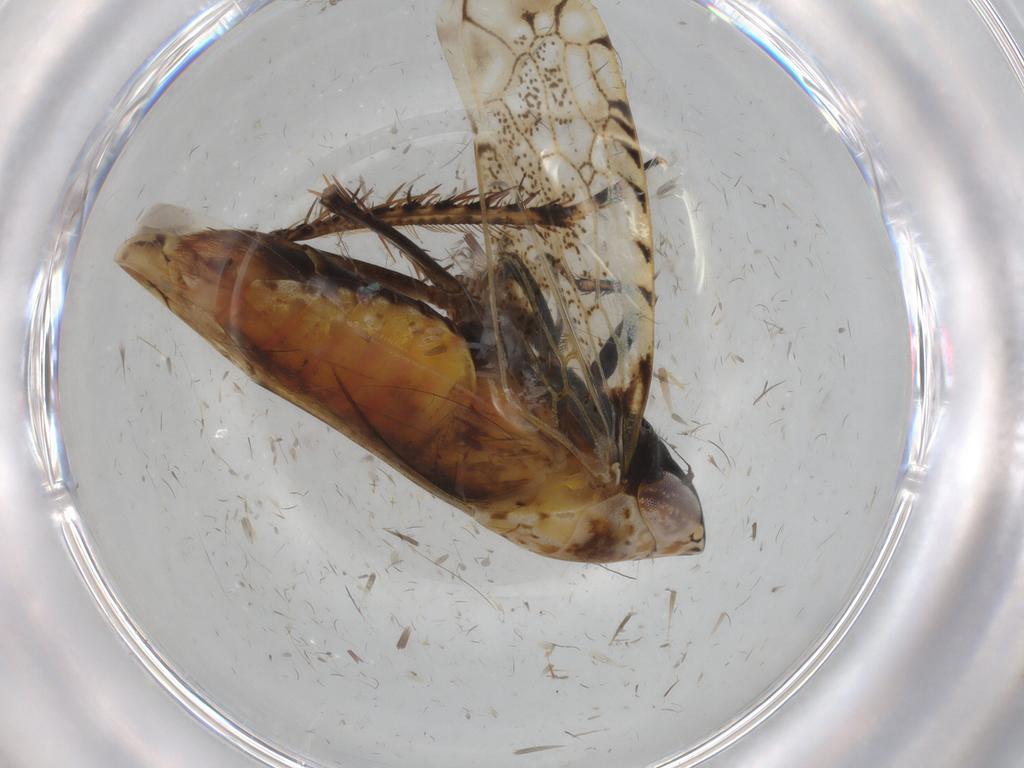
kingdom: Animalia
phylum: Arthropoda
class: Insecta
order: Hemiptera
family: Cicadellidae
